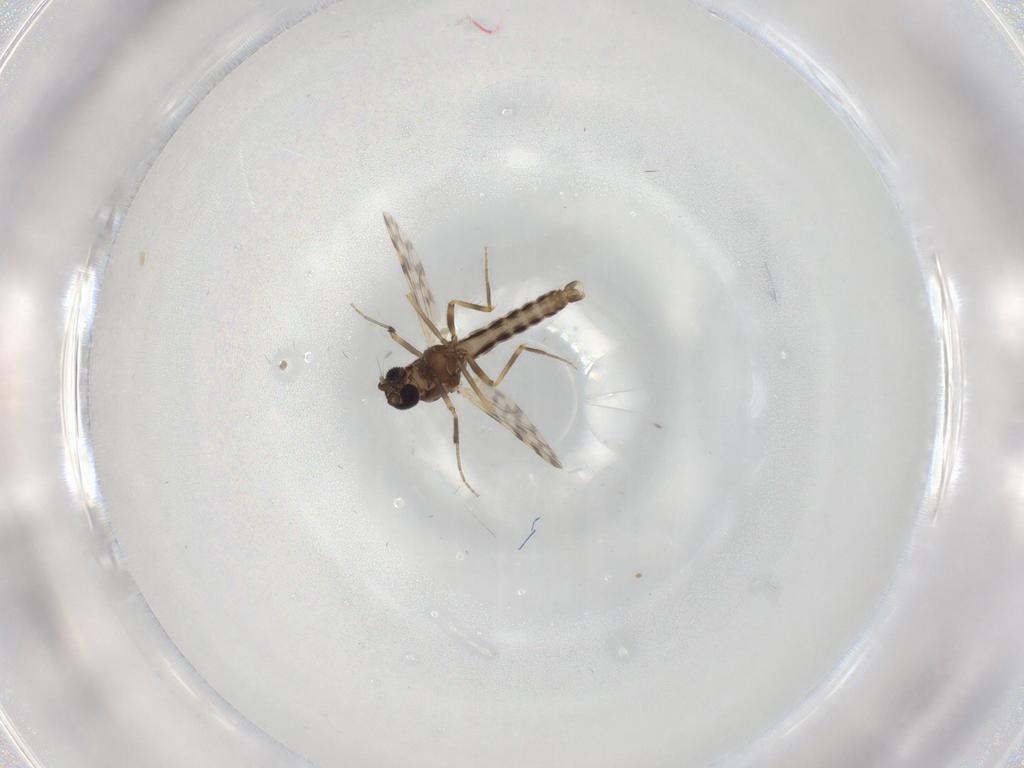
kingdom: Animalia
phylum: Arthropoda
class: Insecta
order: Diptera
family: Ceratopogonidae
